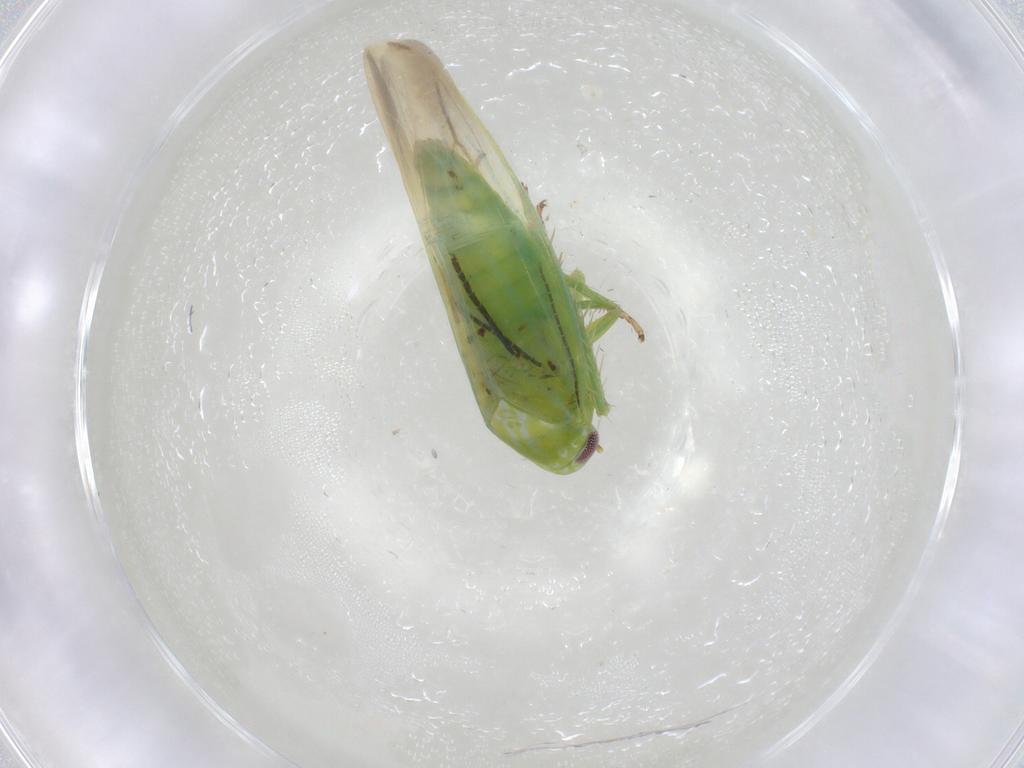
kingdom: Animalia
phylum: Arthropoda
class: Insecta
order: Hemiptera
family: Cicadellidae
